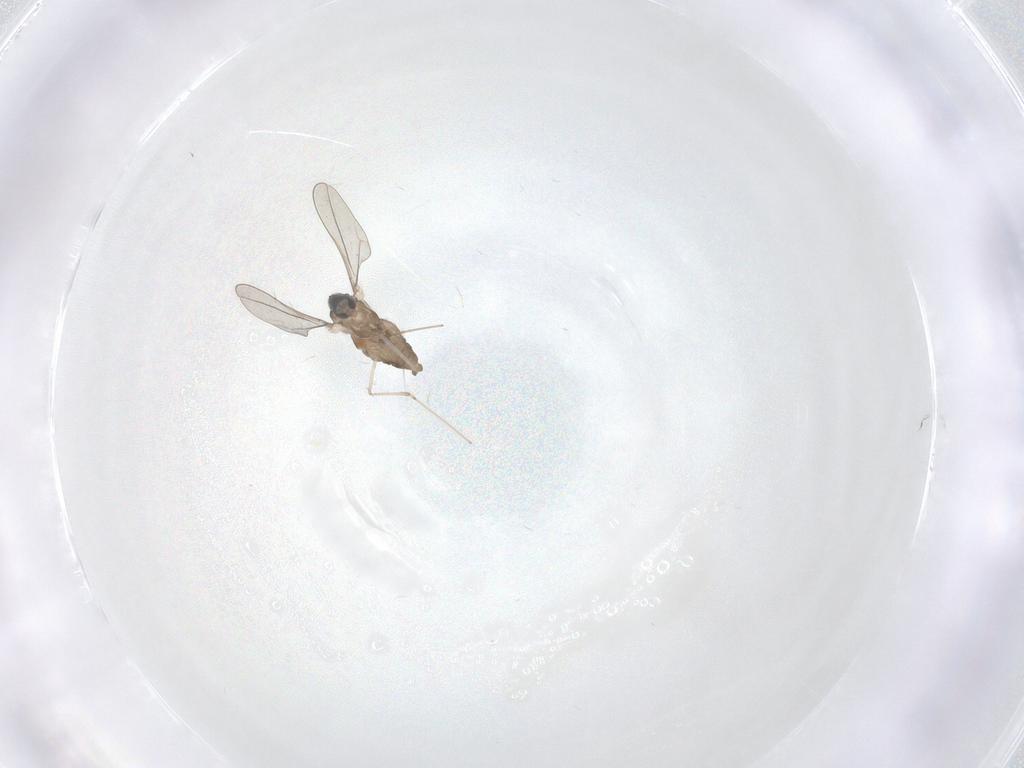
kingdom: Animalia
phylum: Arthropoda
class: Insecta
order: Diptera
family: Cecidomyiidae
